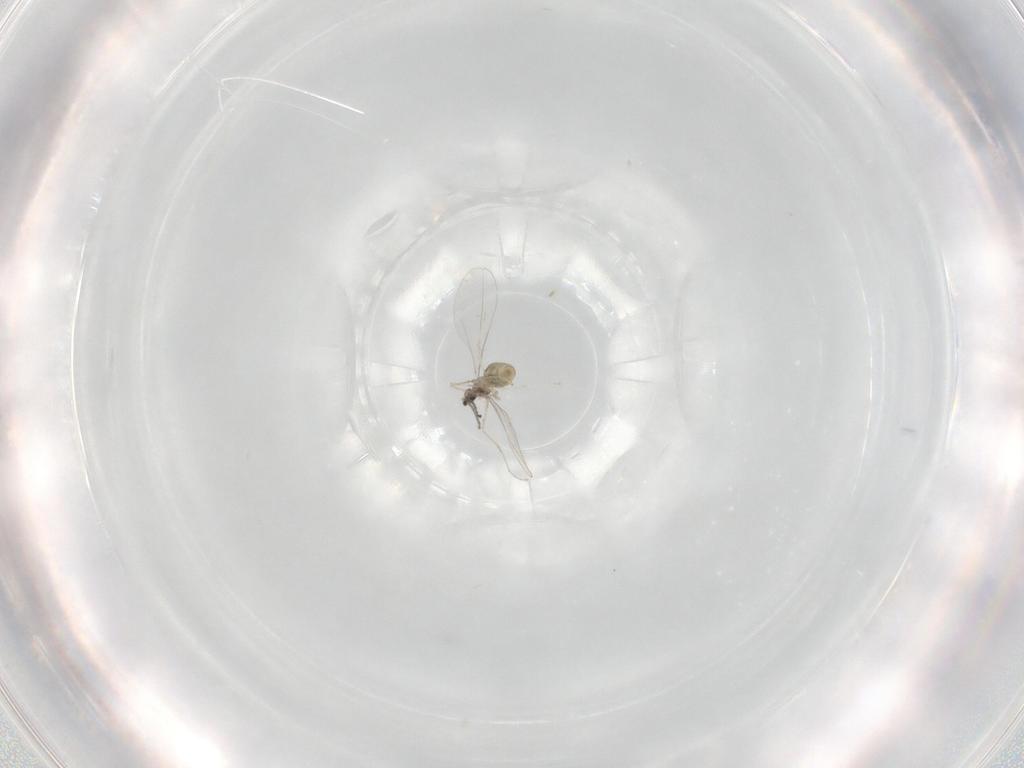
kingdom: Animalia
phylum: Arthropoda
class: Insecta
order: Diptera
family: Cecidomyiidae
